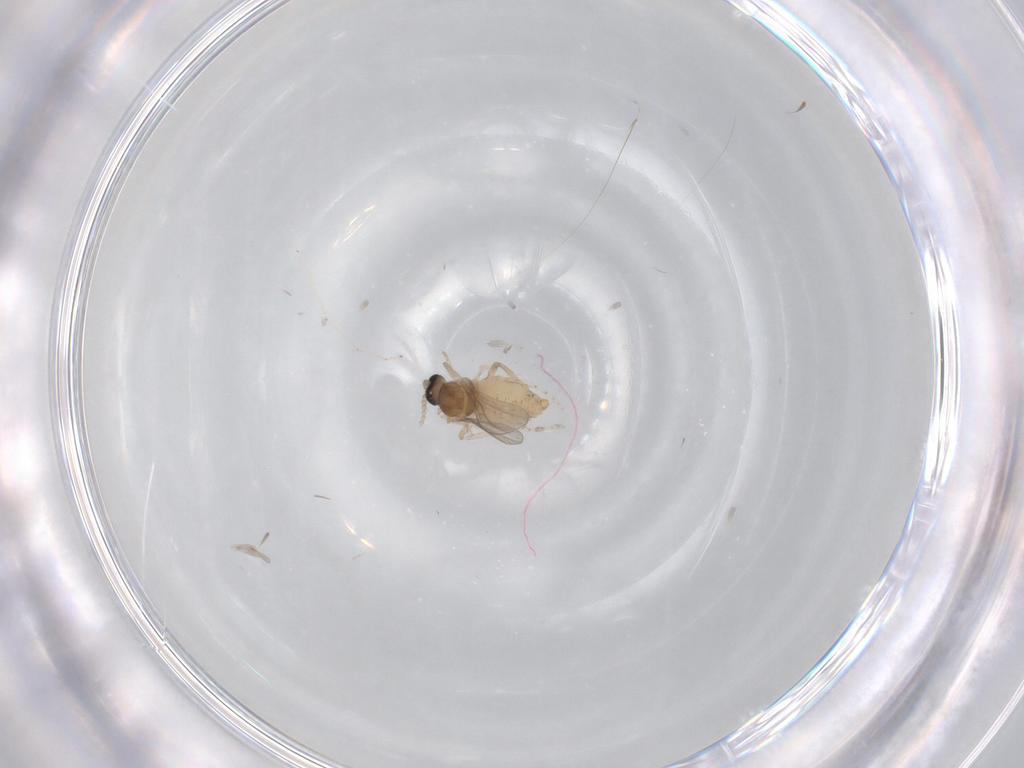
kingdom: Animalia
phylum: Arthropoda
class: Insecta
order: Diptera
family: Cecidomyiidae
